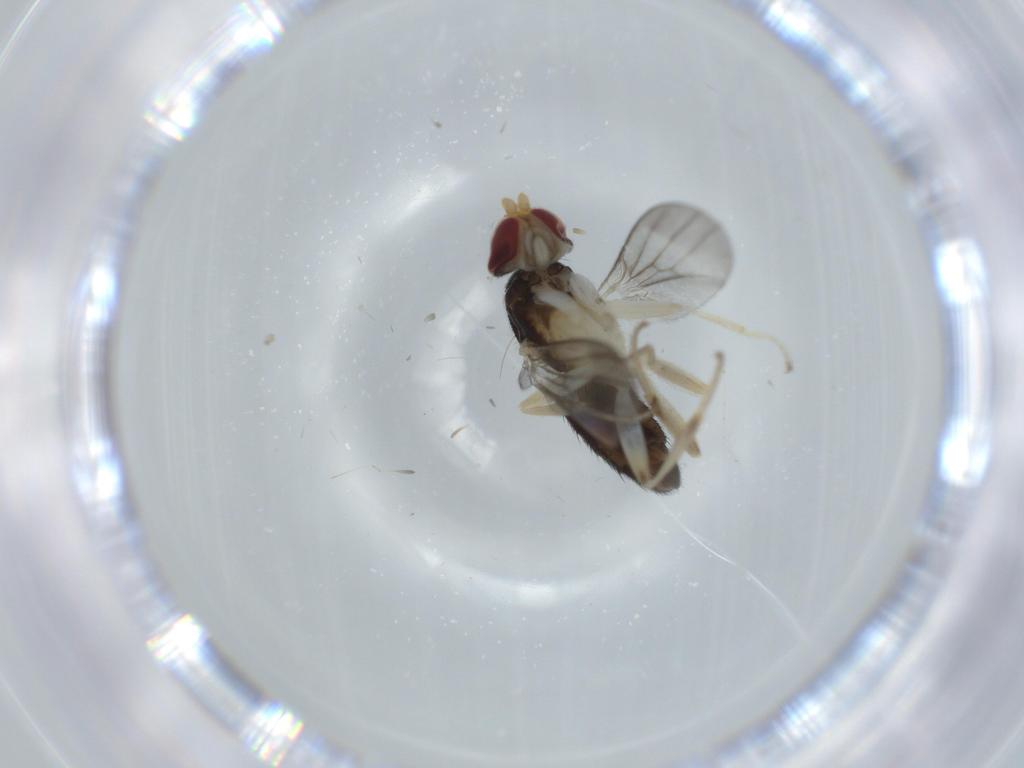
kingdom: Animalia
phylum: Arthropoda
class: Insecta
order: Diptera
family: Clusiidae
